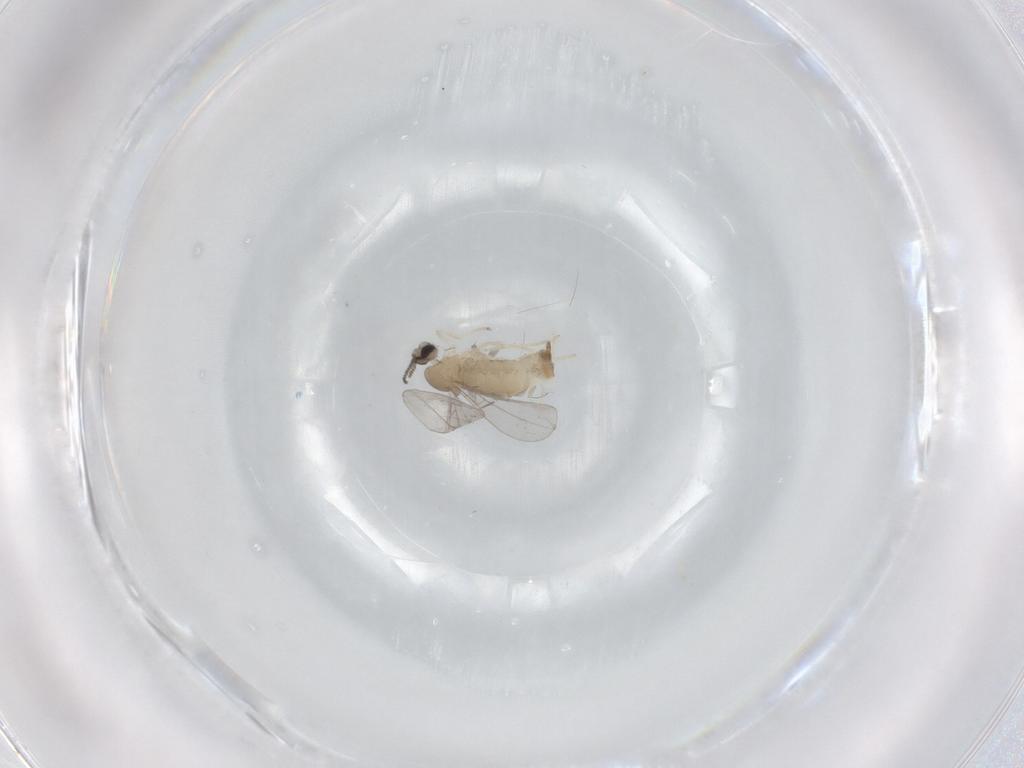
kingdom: Animalia
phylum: Arthropoda
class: Insecta
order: Diptera
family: Cecidomyiidae
